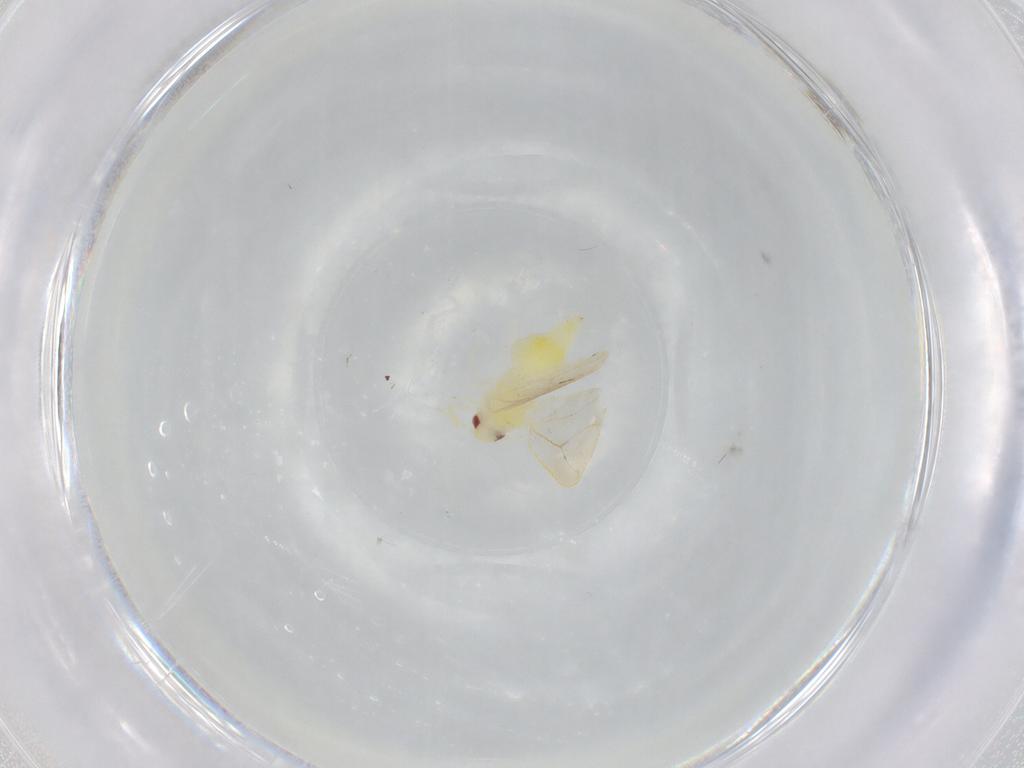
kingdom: Animalia
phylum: Arthropoda
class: Insecta
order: Hemiptera
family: Aleyrodidae
